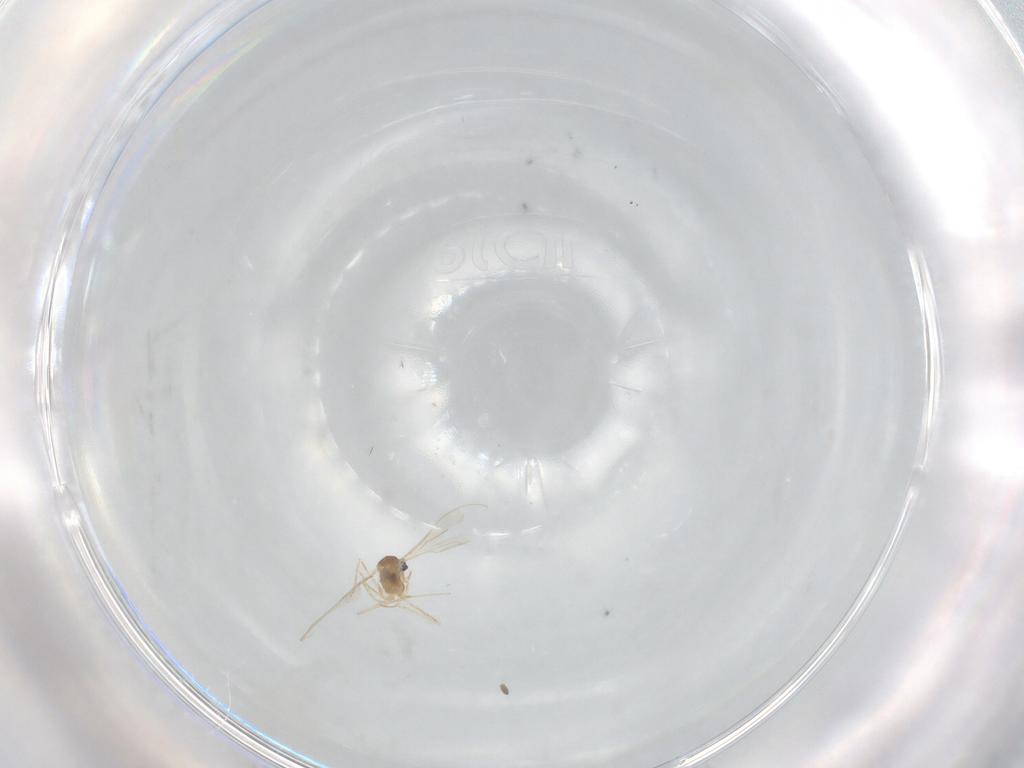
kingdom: Animalia
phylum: Arthropoda
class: Insecta
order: Diptera
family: Cecidomyiidae
